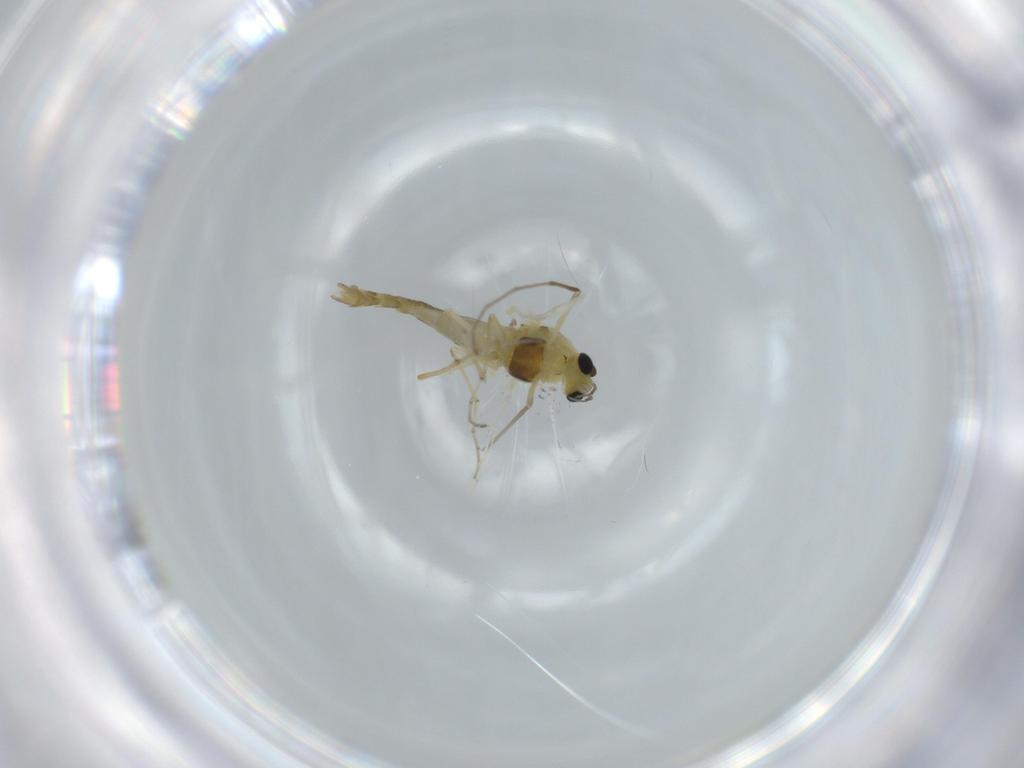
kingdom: Animalia
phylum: Arthropoda
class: Insecta
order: Diptera
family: Chironomidae
